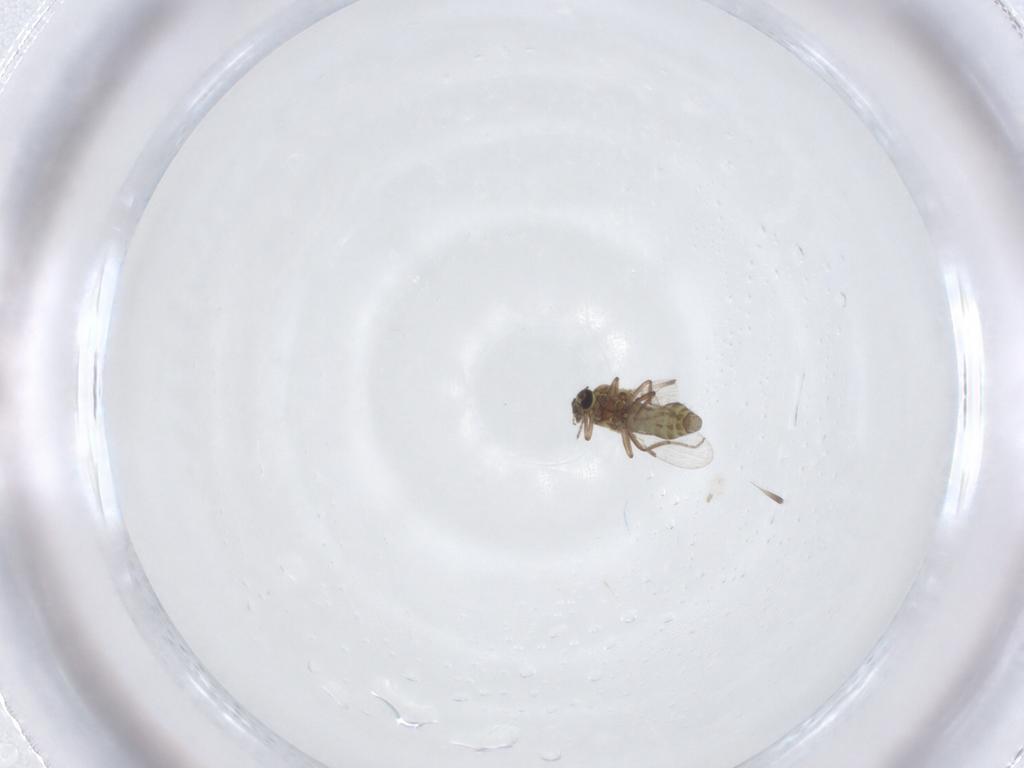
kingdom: Animalia
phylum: Arthropoda
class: Insecta
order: Diptera
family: Ceratopogonidae
